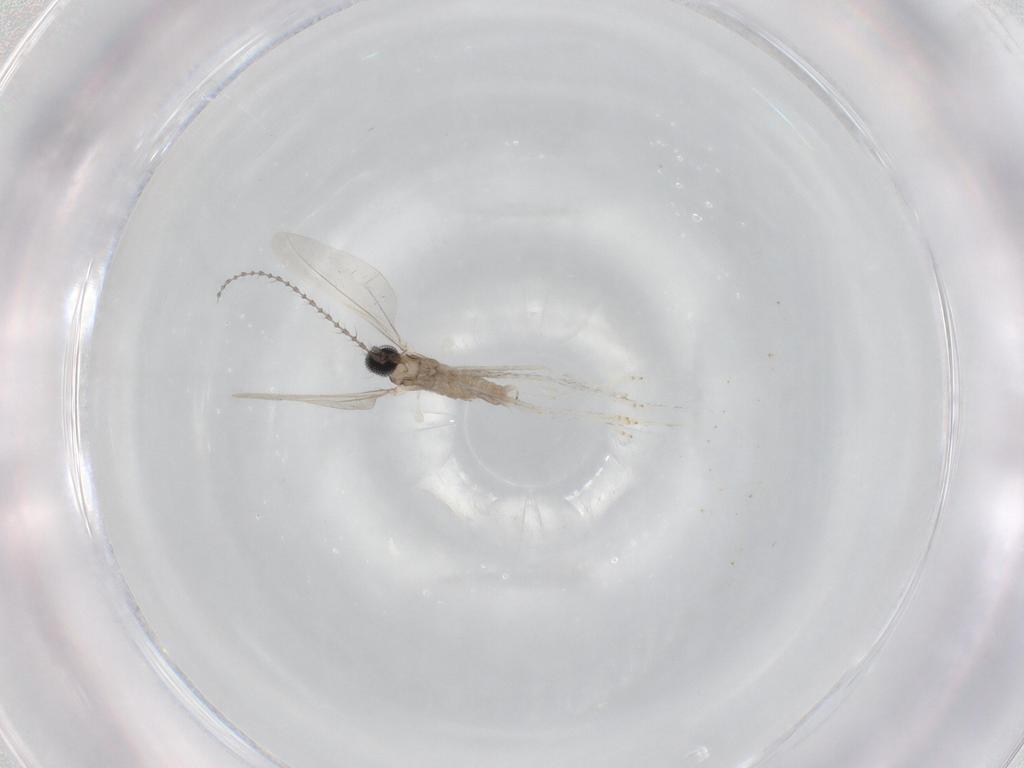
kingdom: Animalia
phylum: Arthropoda
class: Insecta
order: Diptera
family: Cecidomyiidae
